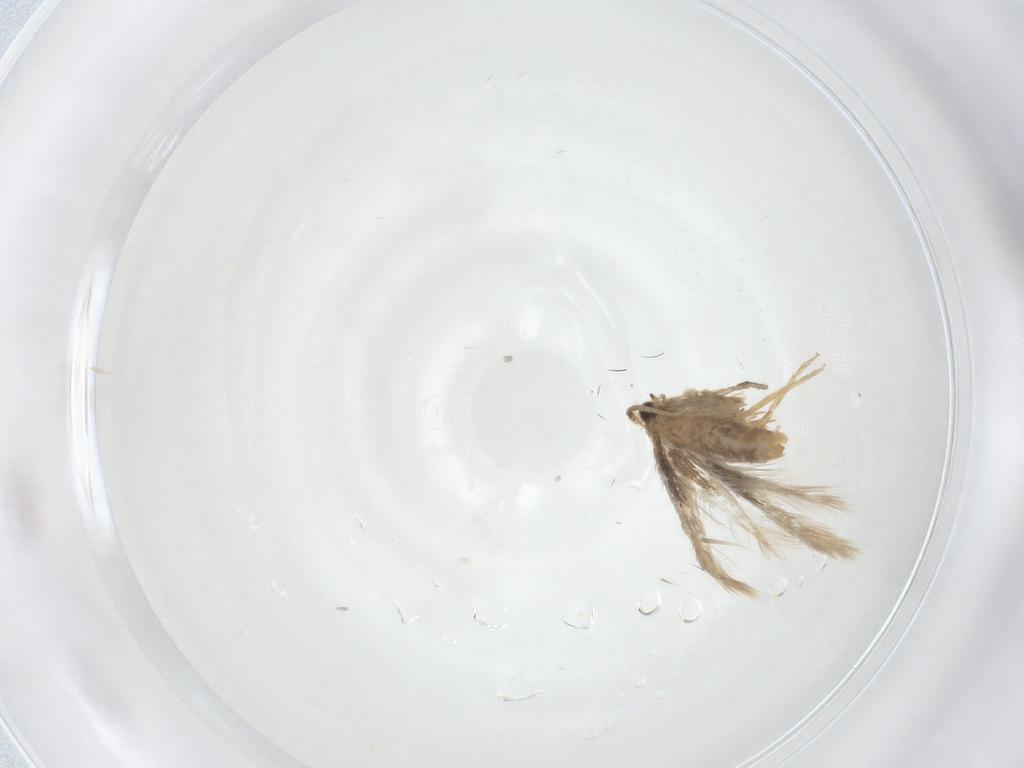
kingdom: Animalia
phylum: Arthropoda
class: Insecta
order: Lepidoptera
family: Nepticulidae
